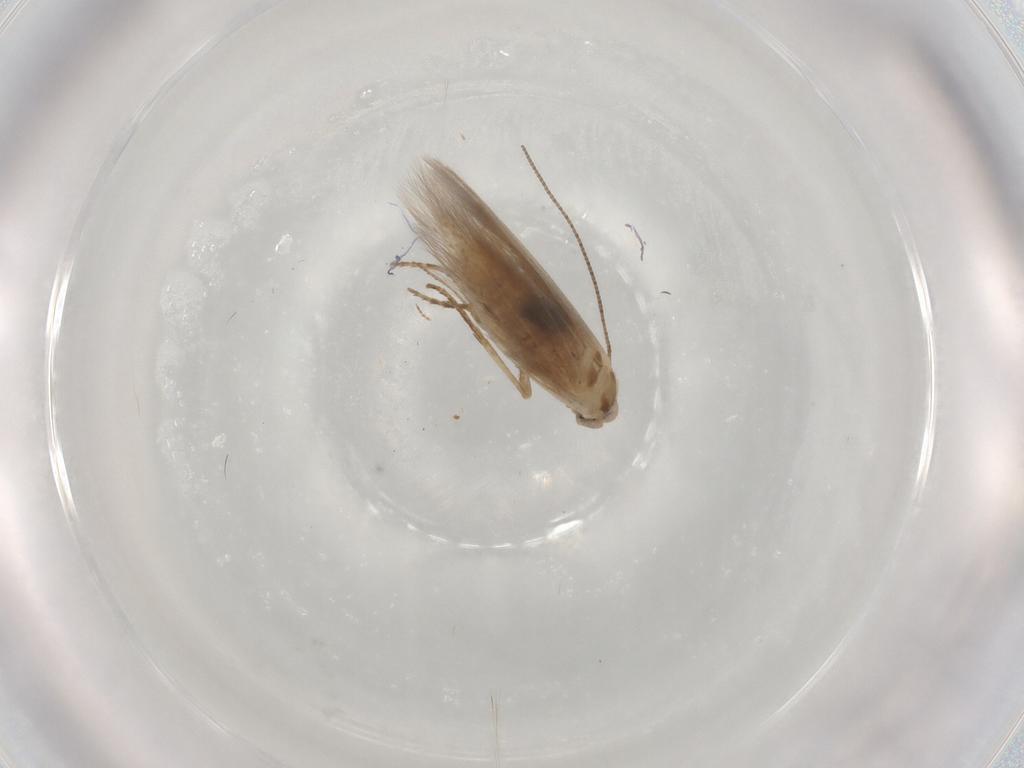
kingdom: Animalia
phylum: Arthropoda
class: Insecta
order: Lepidoptera
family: Bucculatricidae
